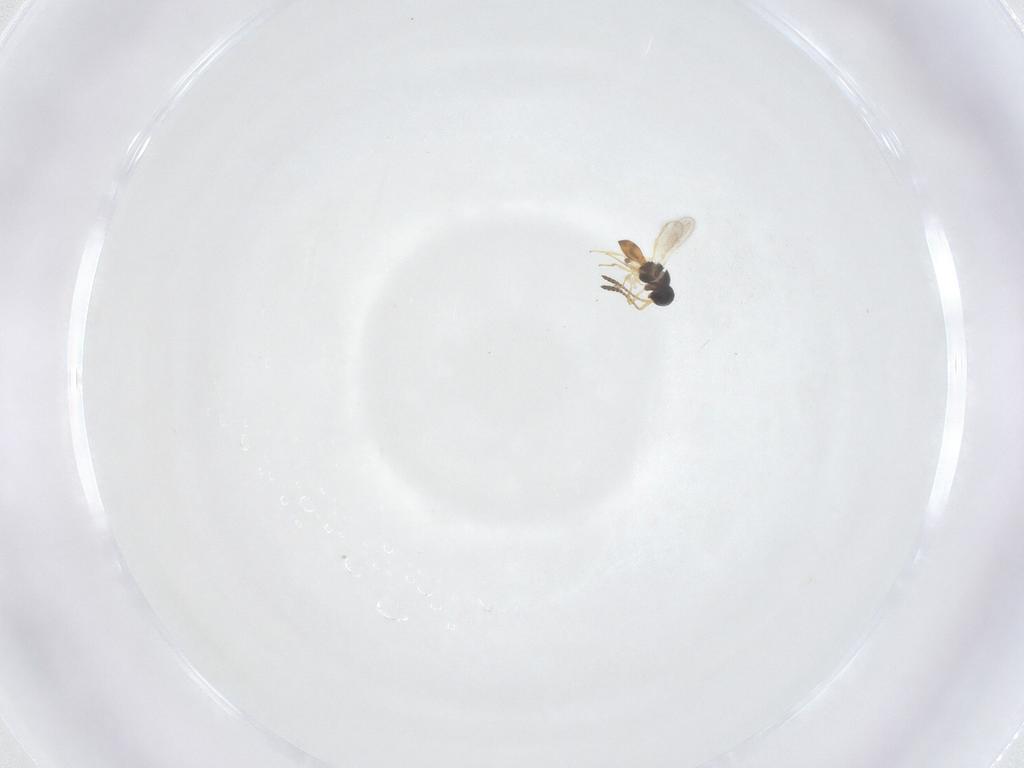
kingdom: Animalia
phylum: Arthropoda
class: Insecta
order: Hymenoptera
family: Scelionidae
